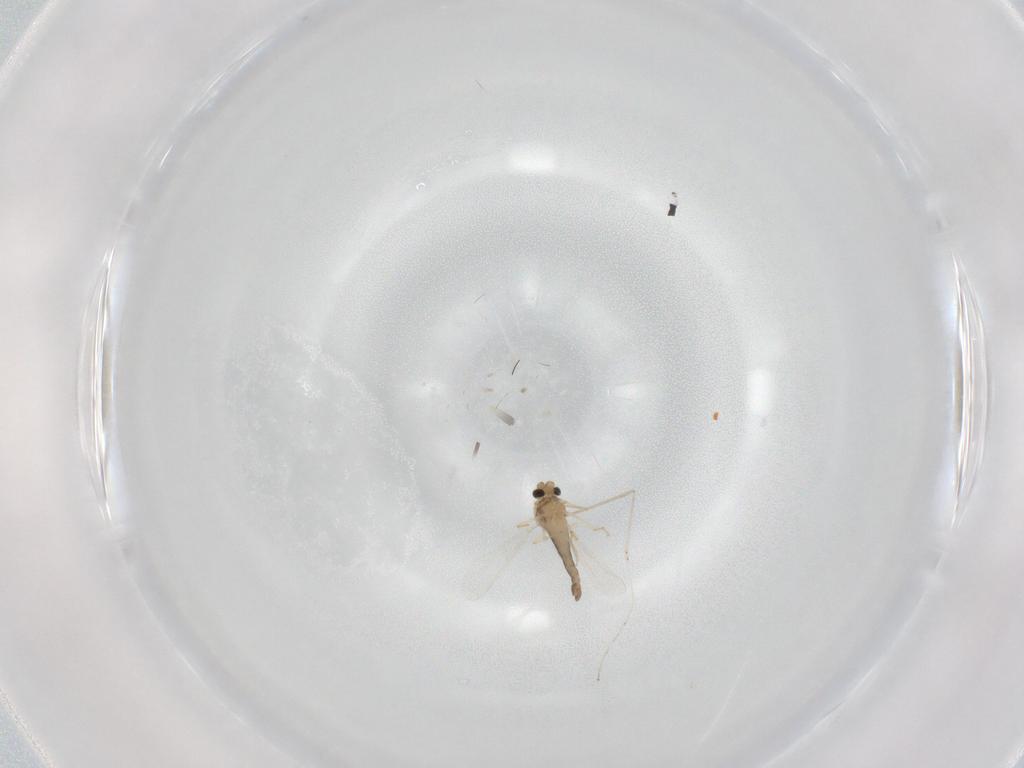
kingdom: Animalia
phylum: Arthropoda
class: Insecta
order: Diptera
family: Chironomidae
